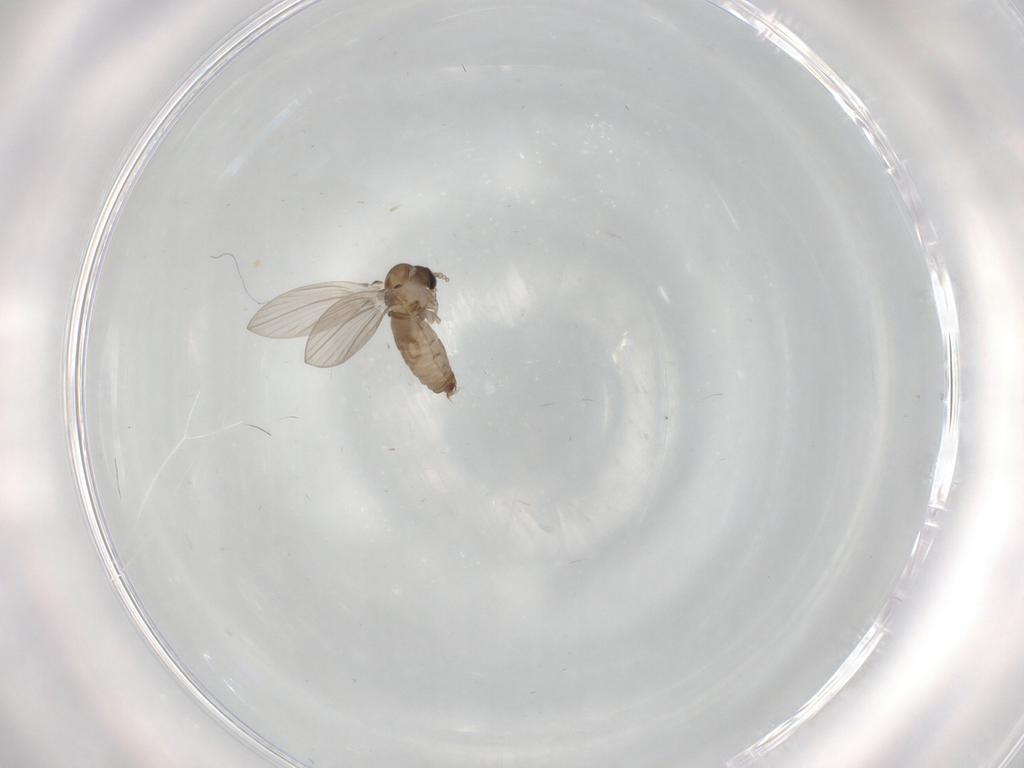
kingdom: Animalia
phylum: Arthropoda
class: Insecta
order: Diptera
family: Psychodidae
